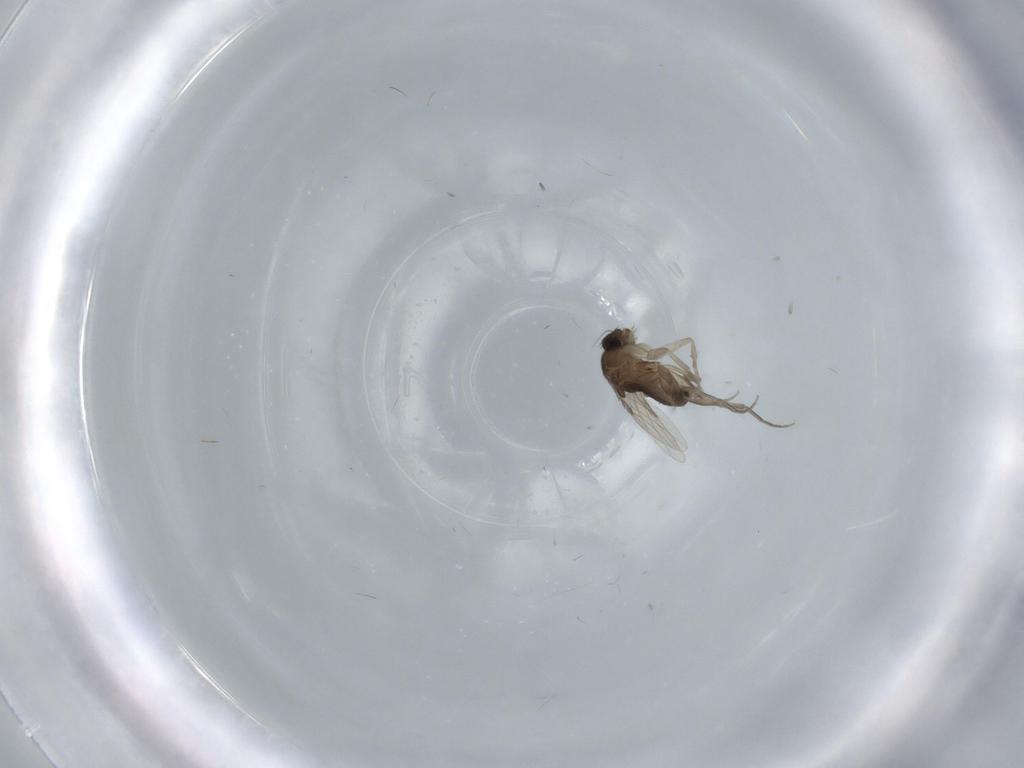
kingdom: Animalia
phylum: Arthropoda
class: Insecta
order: Diptera
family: Phoridae
